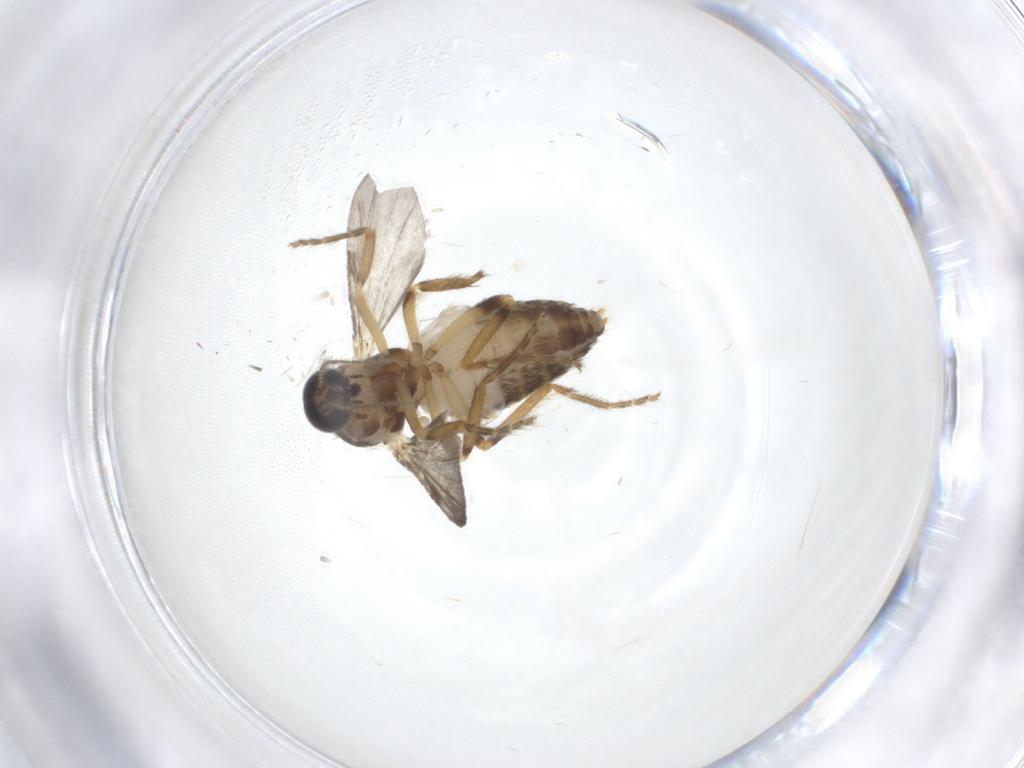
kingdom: Animalia
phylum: Arthropoda
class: Insecta
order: Diptera
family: Ceratopogonidae
